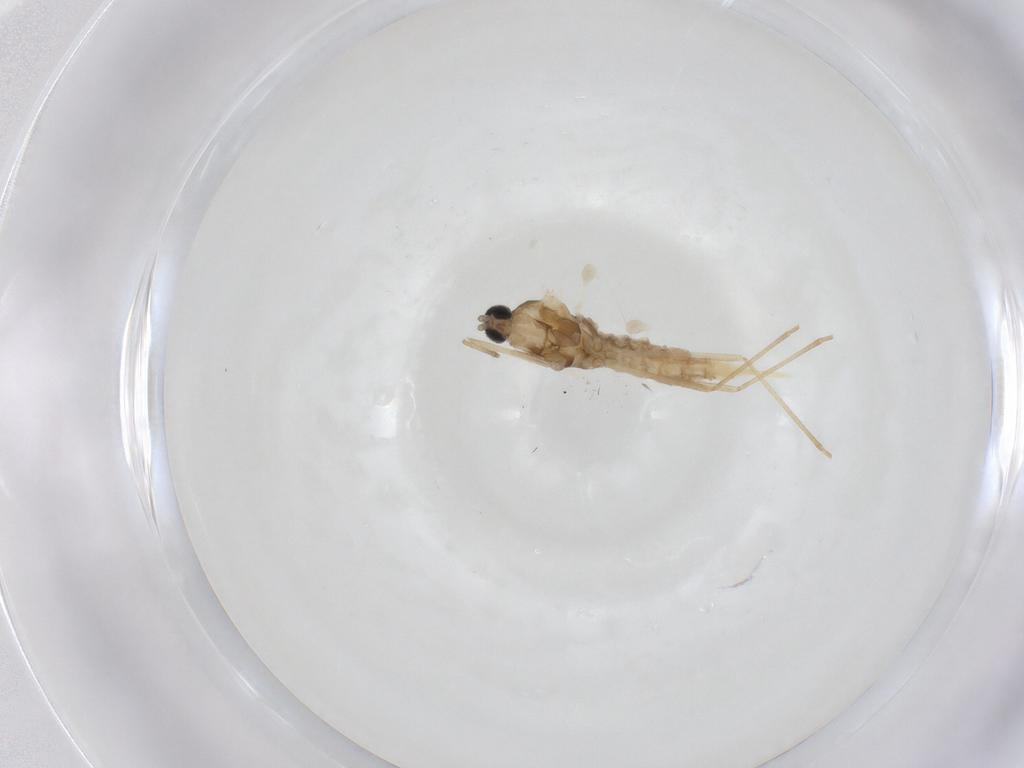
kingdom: Animalia
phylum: Arthropoda
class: Insecta
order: Diptera
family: Cecidomyiidae
